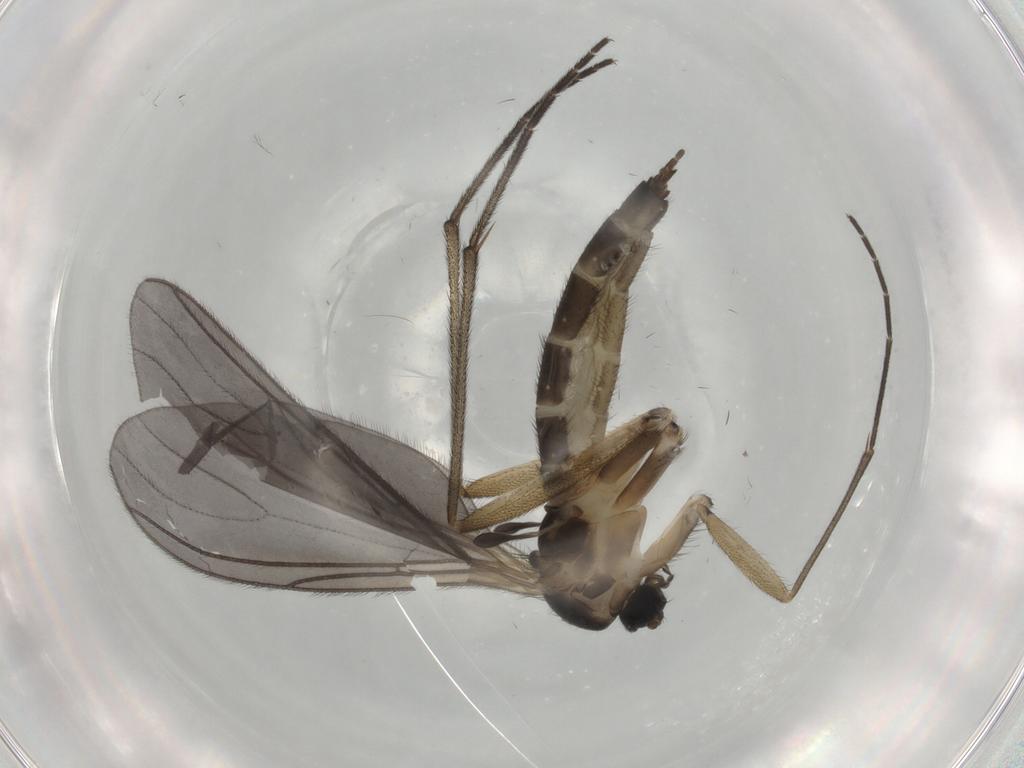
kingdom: Animalia
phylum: Arthropoda
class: Insecta
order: Diptera
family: Sciaridae
